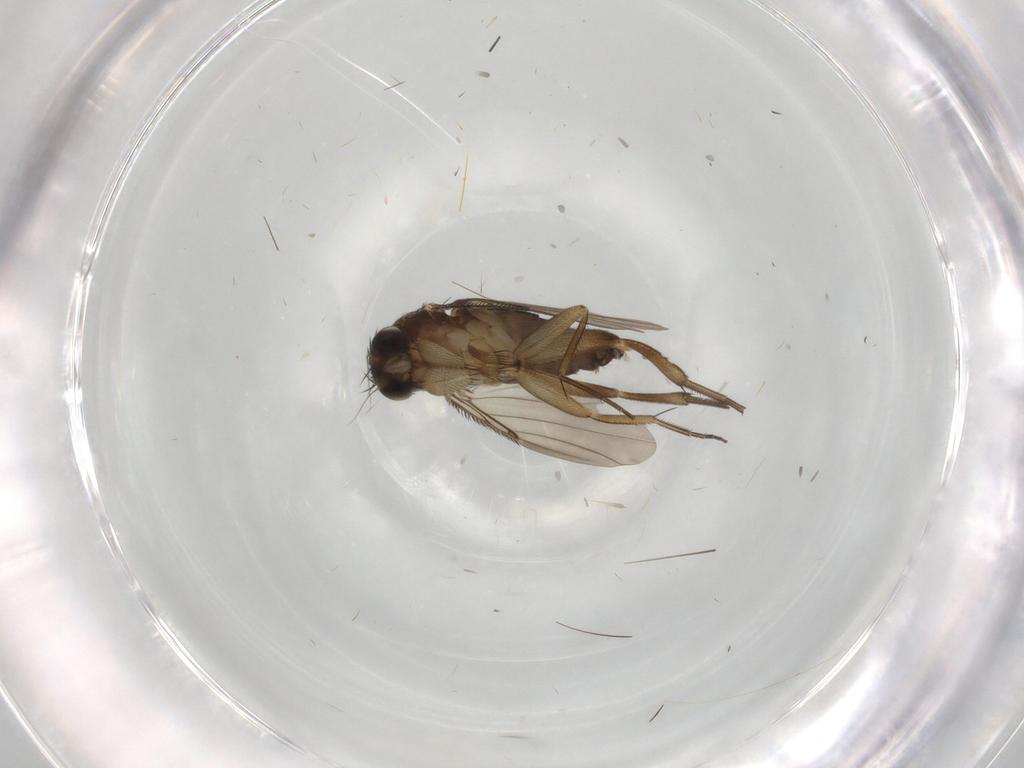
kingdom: Animalia
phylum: Arthropoda
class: Insecta
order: Diptera
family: Phoridae
